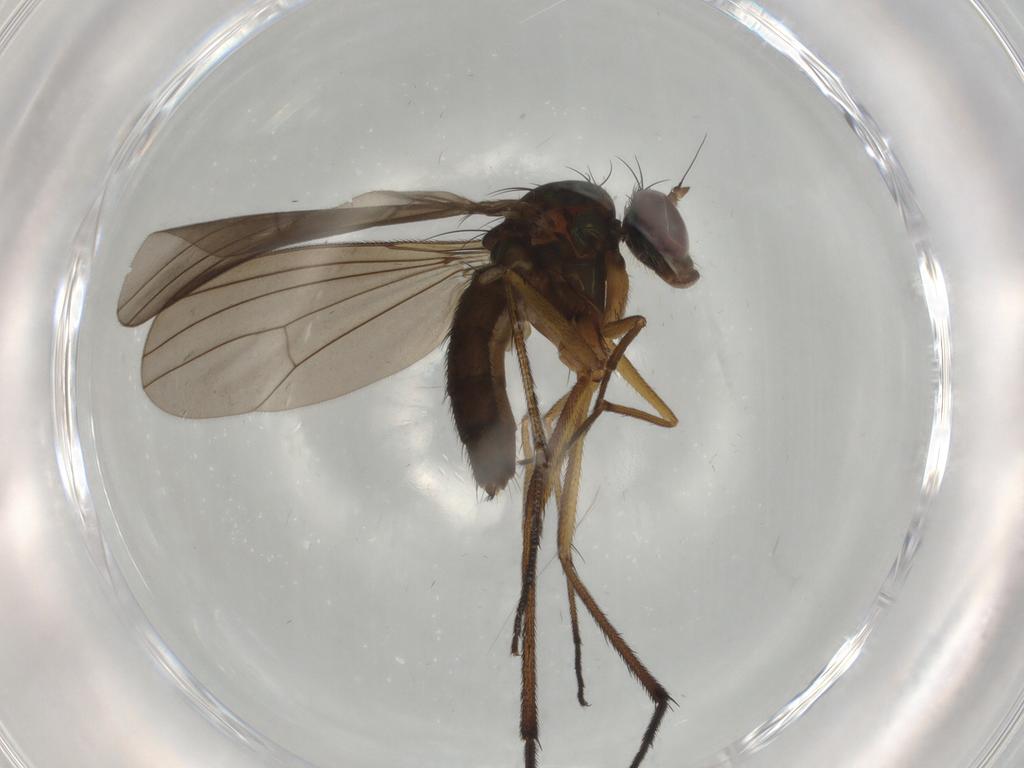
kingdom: Animalia
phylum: Arthropoda
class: Insecta
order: Diptera
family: Dolichopodidae
